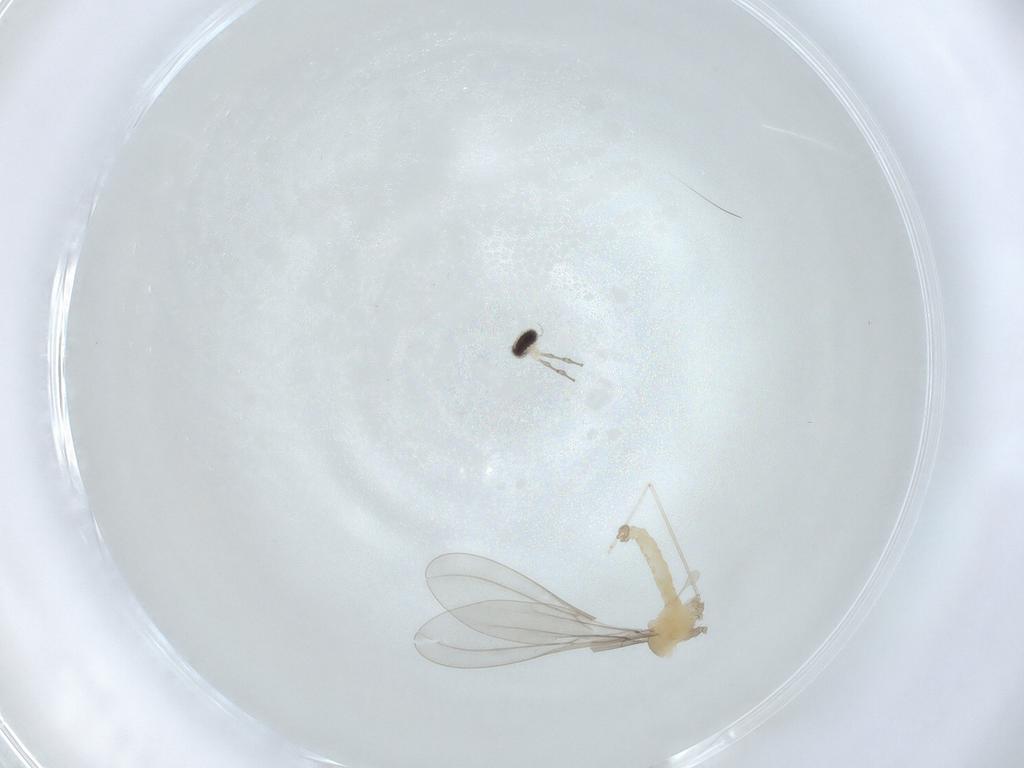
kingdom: Animalia
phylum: Arthropoda
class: Insecta
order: Diptera
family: Cecidomyiidae
